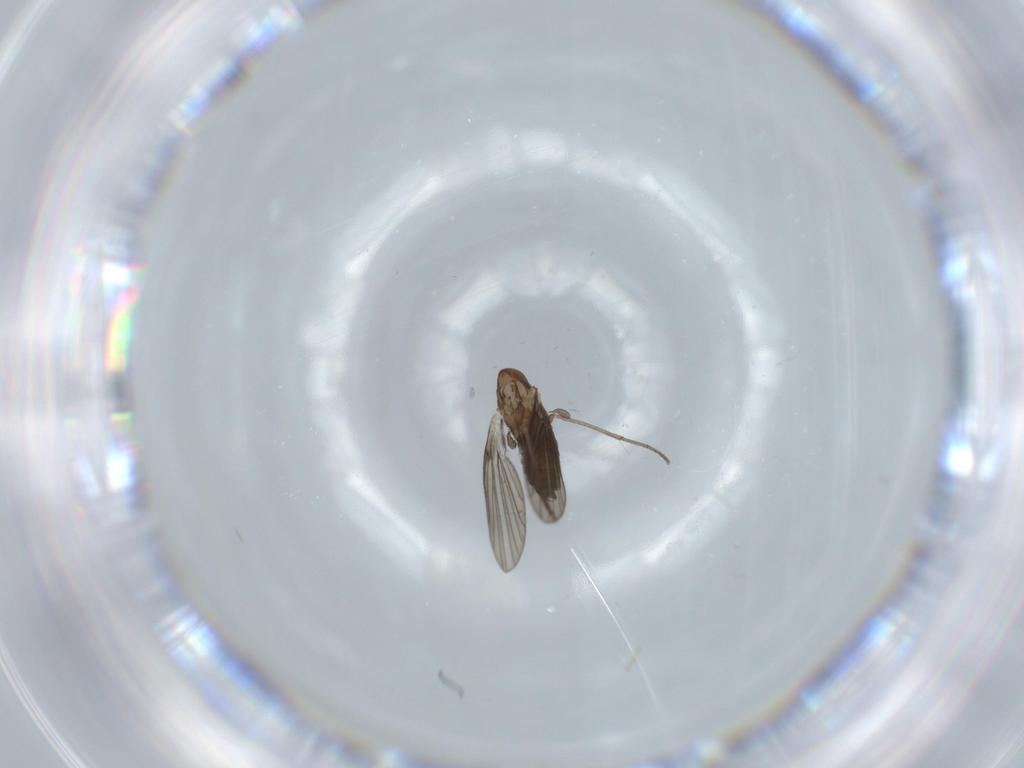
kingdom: Animalia
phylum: Arthropoda
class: Insecta
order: Diptera
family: Psychodidae
